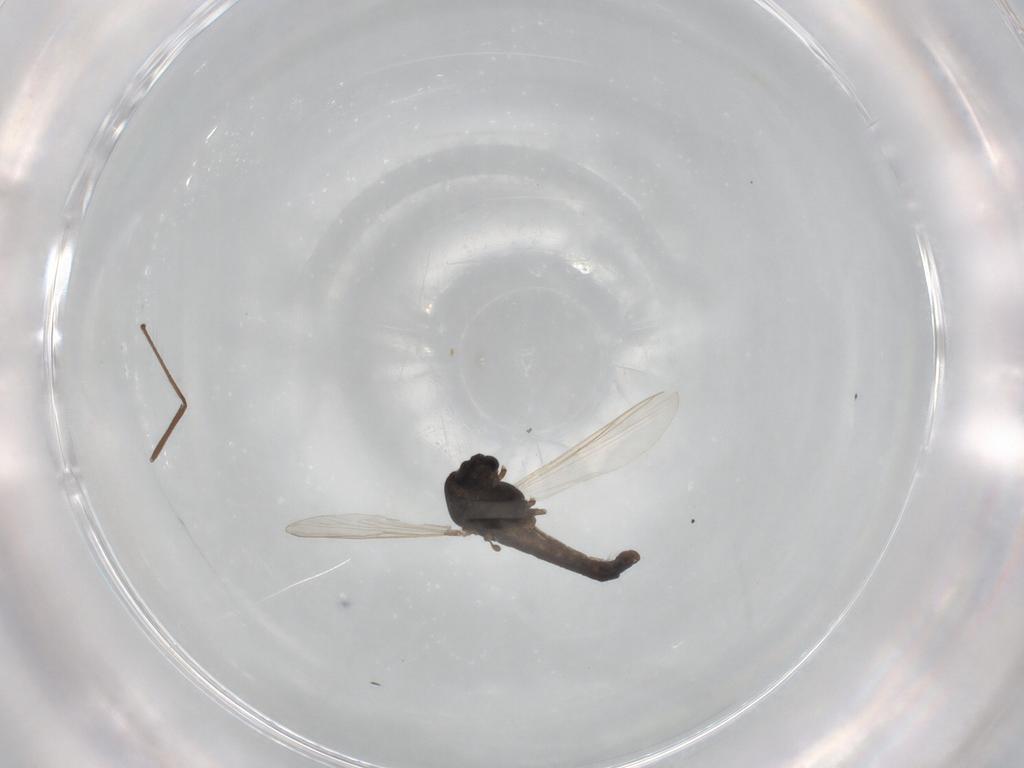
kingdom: Animalia
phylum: Arthropoda
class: Insecta
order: Diptera
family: Chironomidae
